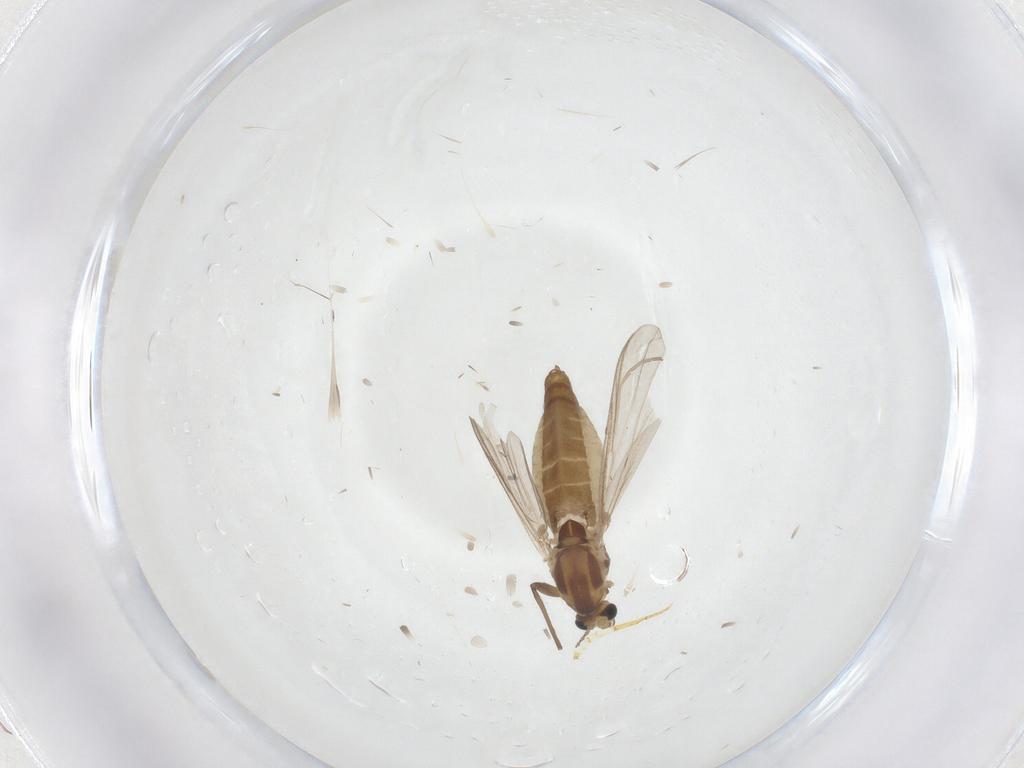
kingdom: Animalia
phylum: Arthropoda
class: Insecta
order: Diptera
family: Chironomidae
